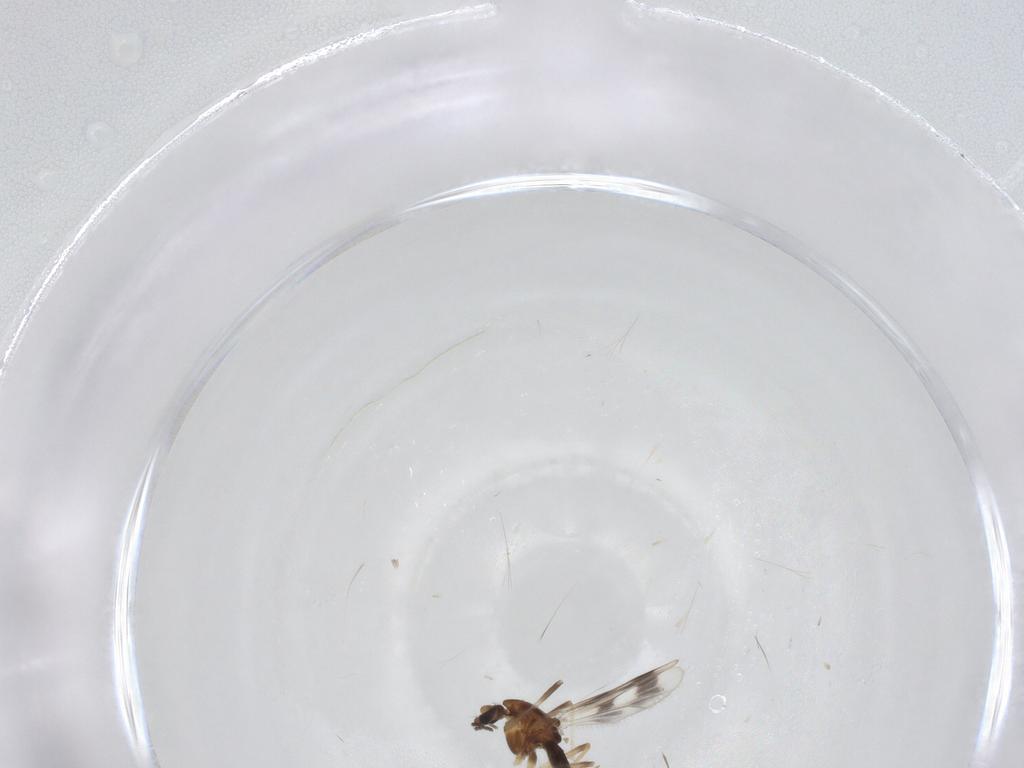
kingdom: Animalia
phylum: Arthropoda
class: Insecta
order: Diptera
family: Chironomidae
